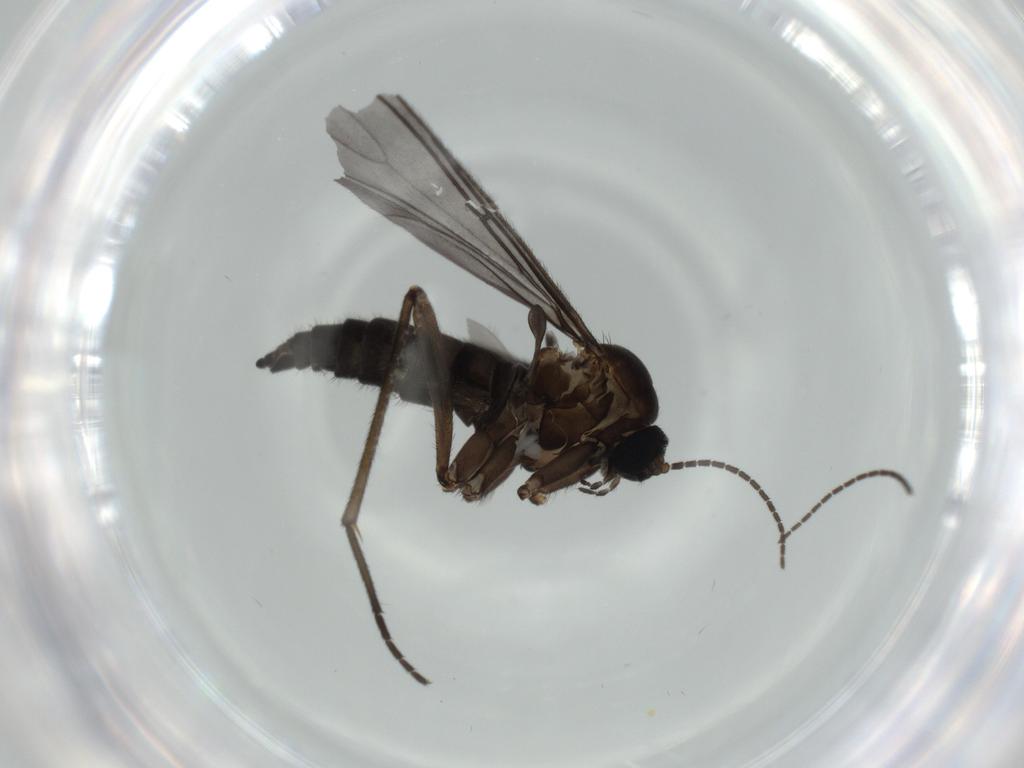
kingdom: Animalia
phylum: Arthropoda
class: Insecta
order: Diptera
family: Sciaridae
